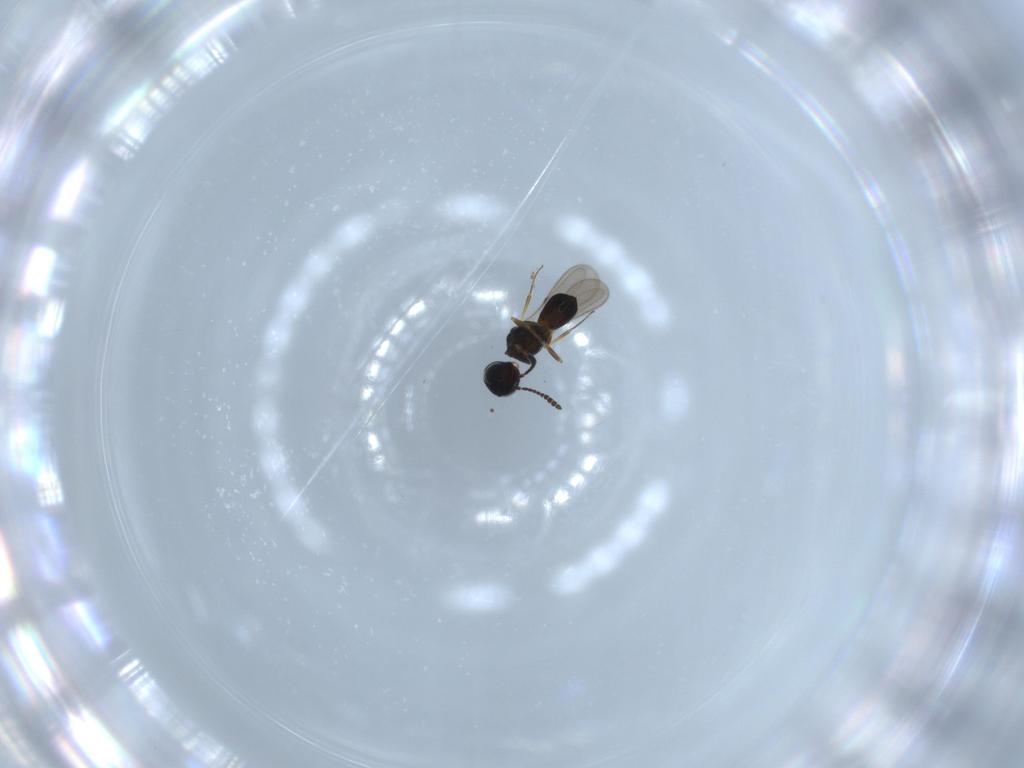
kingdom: Animalia
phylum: Arthropoda
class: Insecta
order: Hymenoptera
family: Scelionidae
